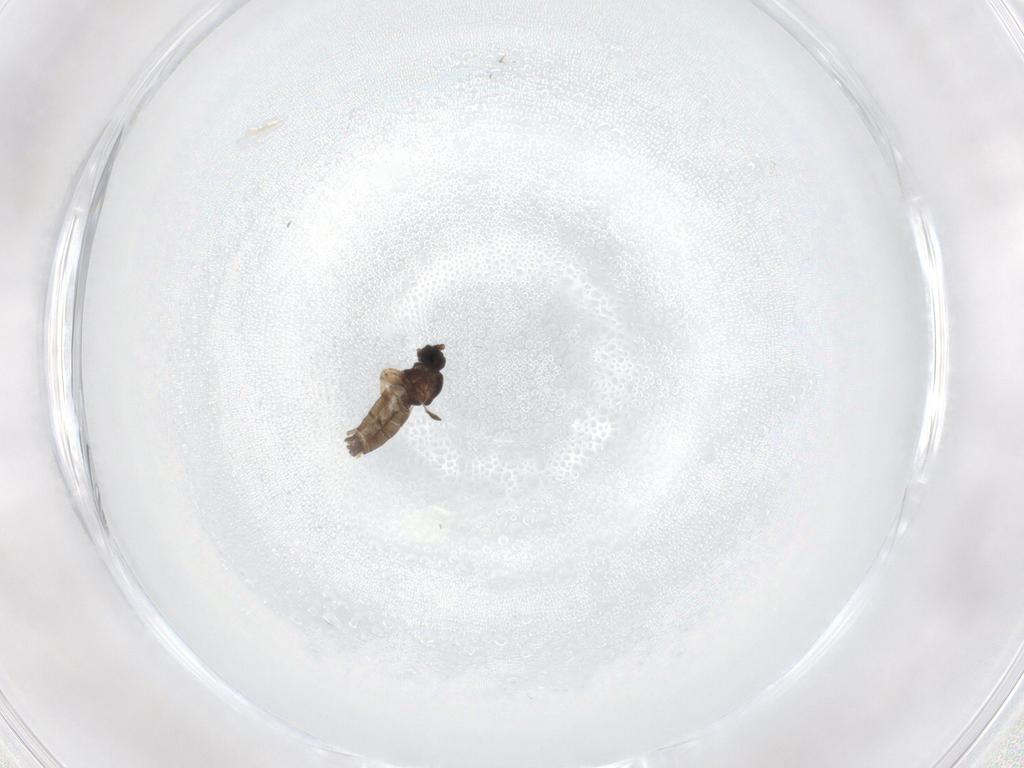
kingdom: Animalia
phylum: Arthropoda
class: Insecta
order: Diptera
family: Cecidomyiidae
